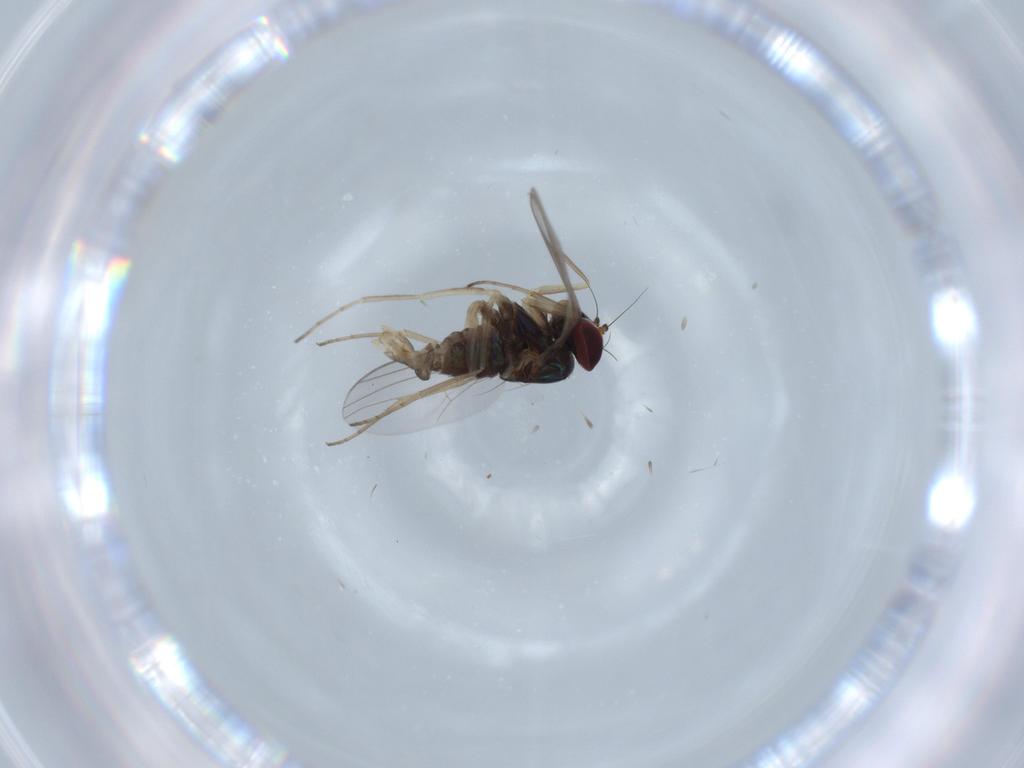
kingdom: Animalia
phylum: Arthropoda
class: Insecta
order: Diptera
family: Dolichopodidae
